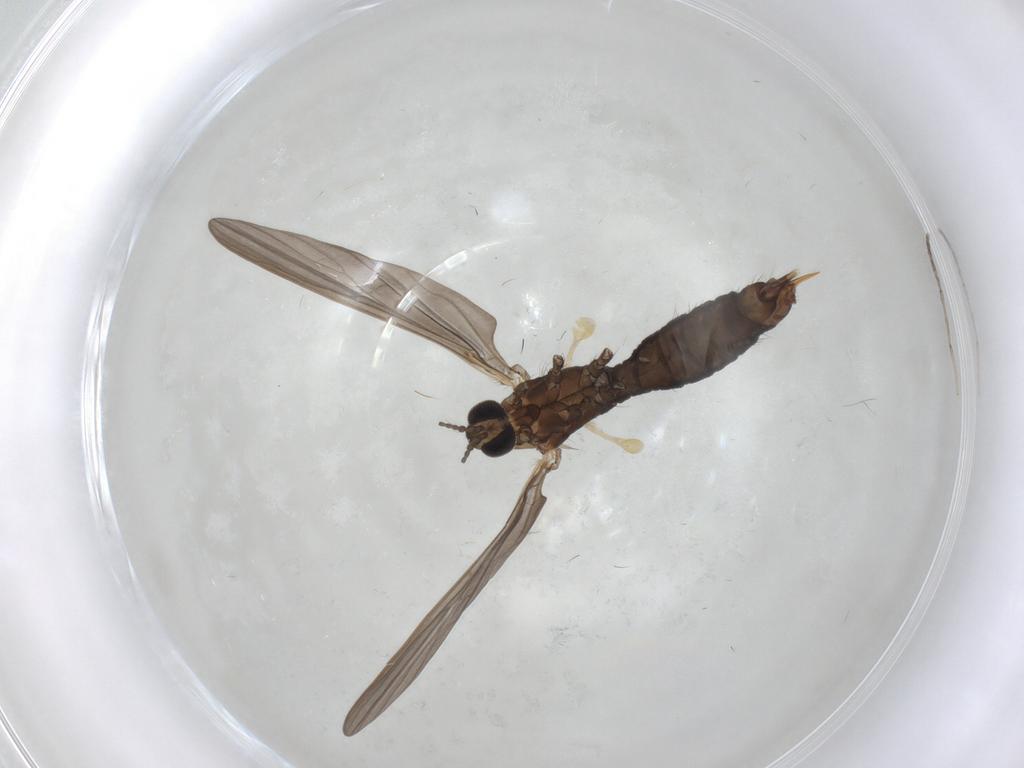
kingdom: Animalia
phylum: Arthropoda
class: Insecta
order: Diptera
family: Limoniidae
